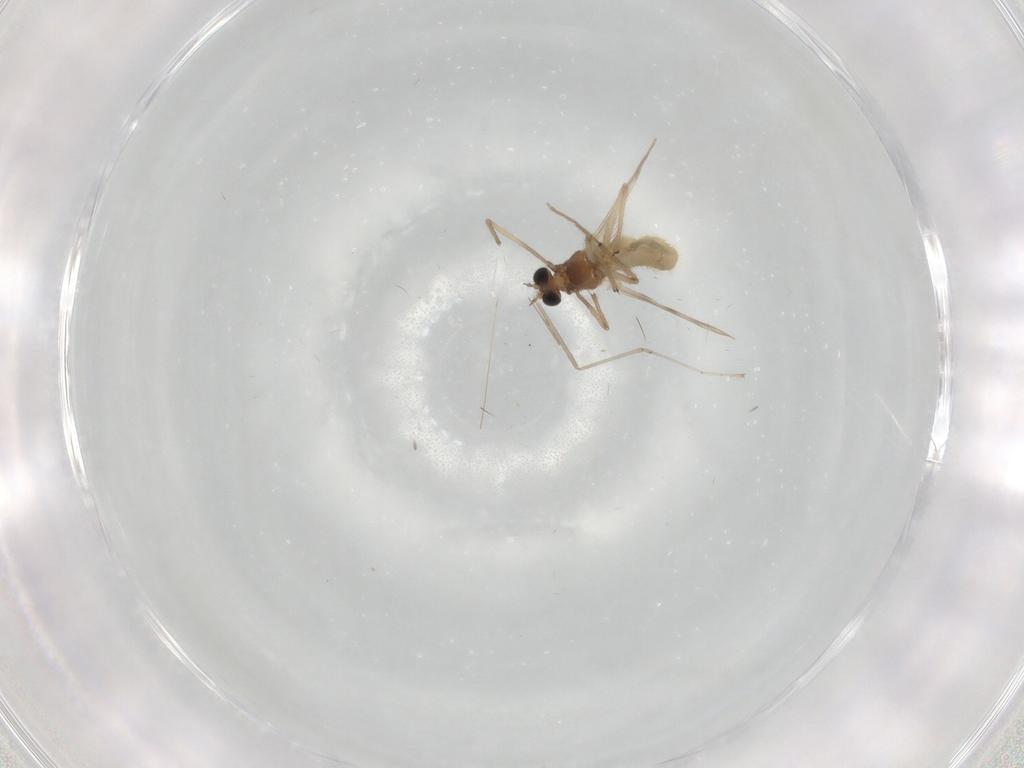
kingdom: Animalia
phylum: Arthropoda
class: Insecta
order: Diptera
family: Chironomidae
